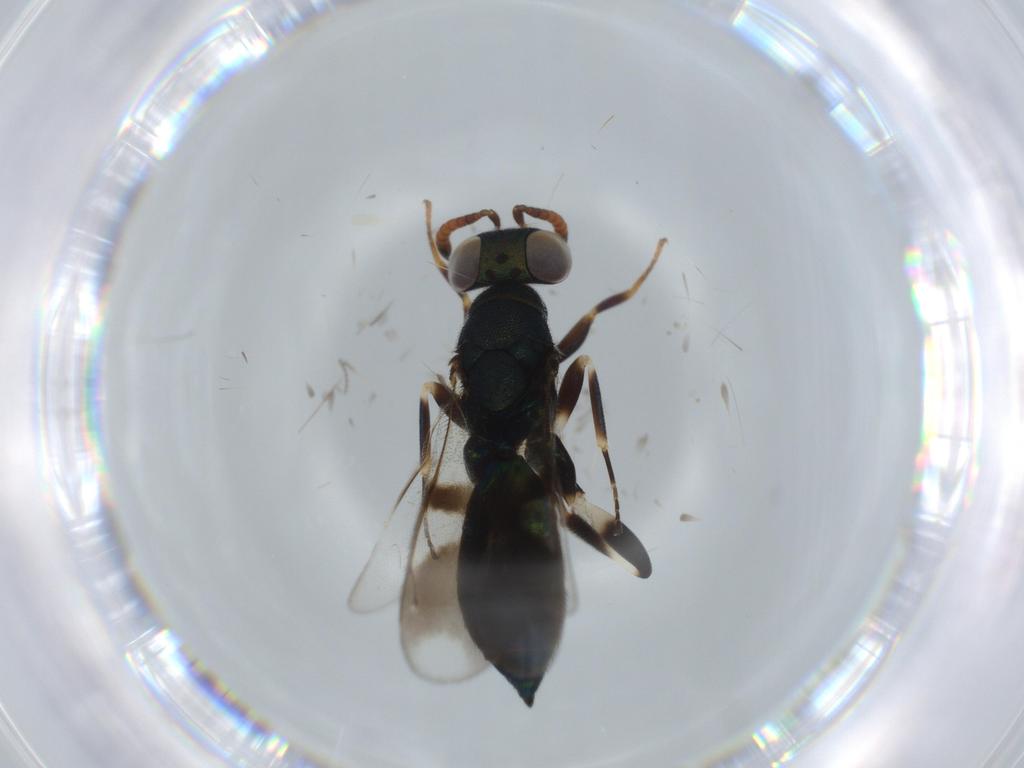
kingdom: Animalia
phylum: Arthropoda
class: Insecta
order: Hymenoptera
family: Cleonyminae
